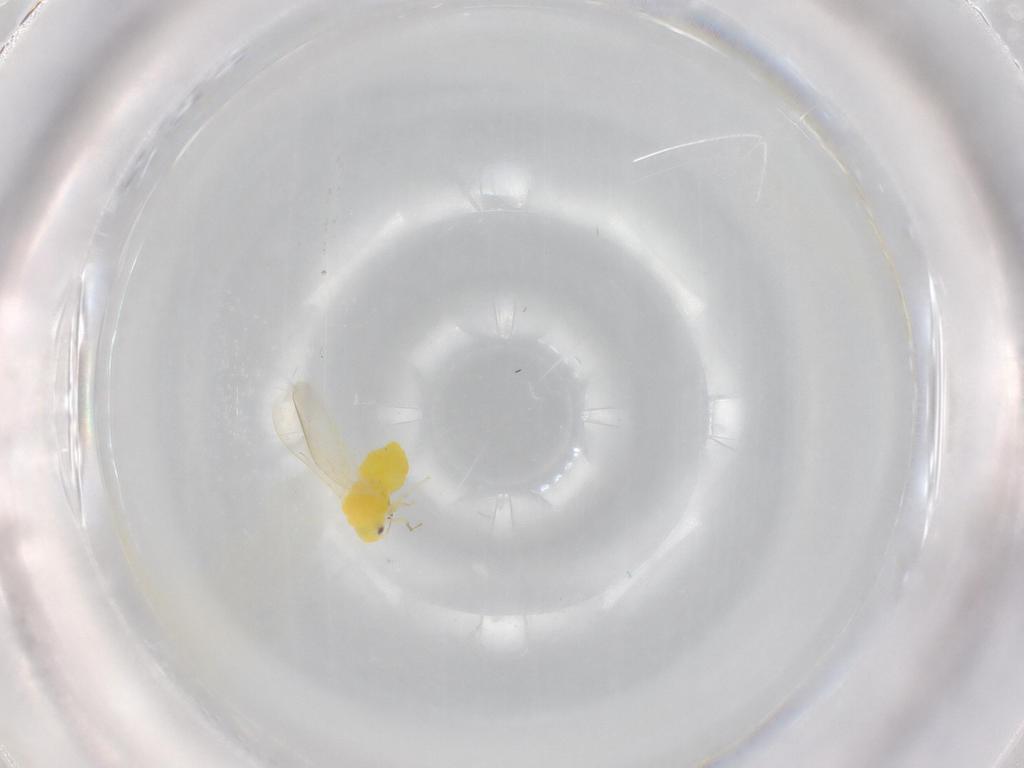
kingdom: Animalia
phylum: Arthropoda
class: Insecta
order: Hemiptera
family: Aleyrodidae
